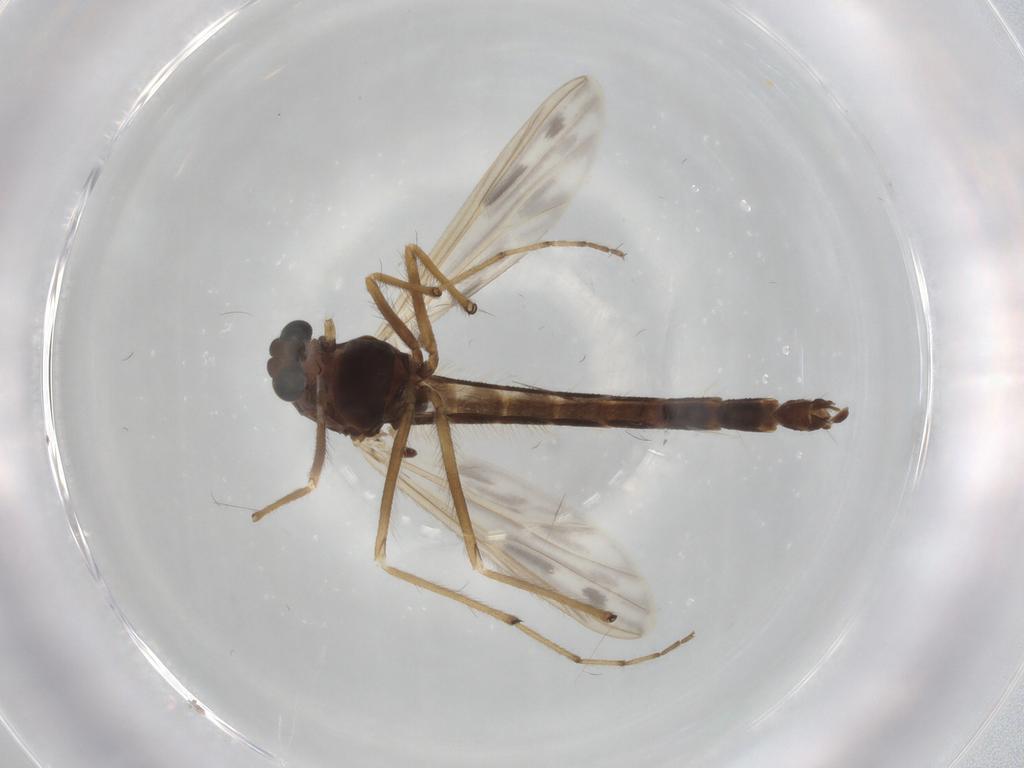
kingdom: Animalia
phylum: Arthropoda
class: Insecta
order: Diptera
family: Chironomidae
